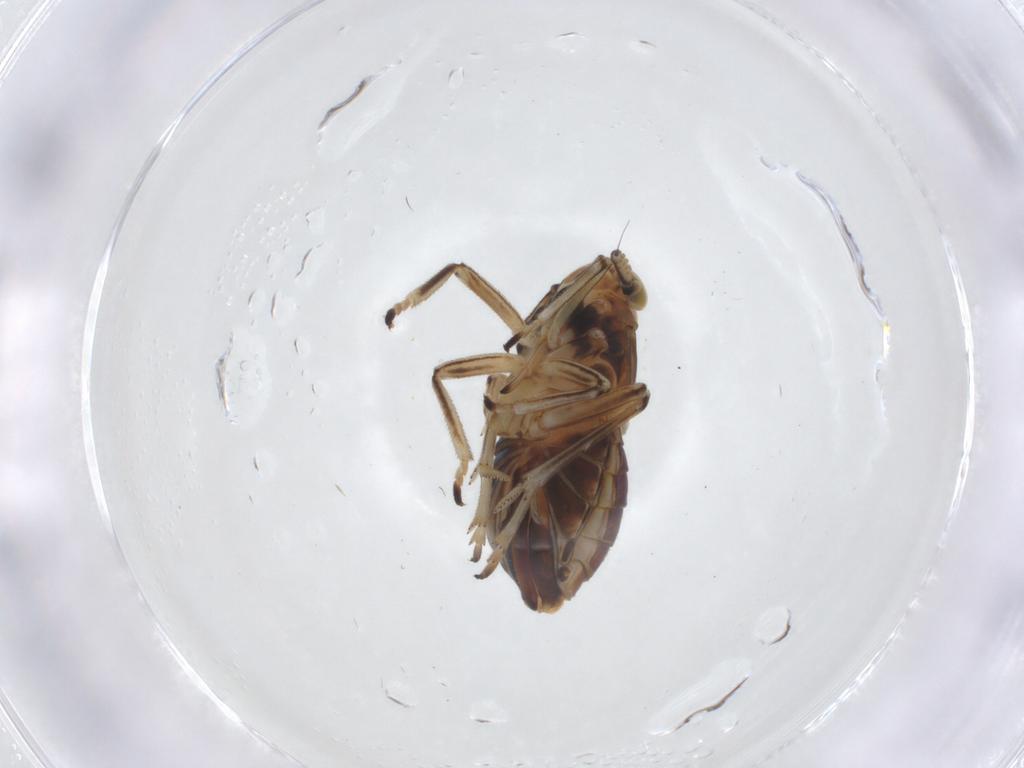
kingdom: Animalia
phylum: Arthropoda
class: Insecta
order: Hemiptera
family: Delphacidae
